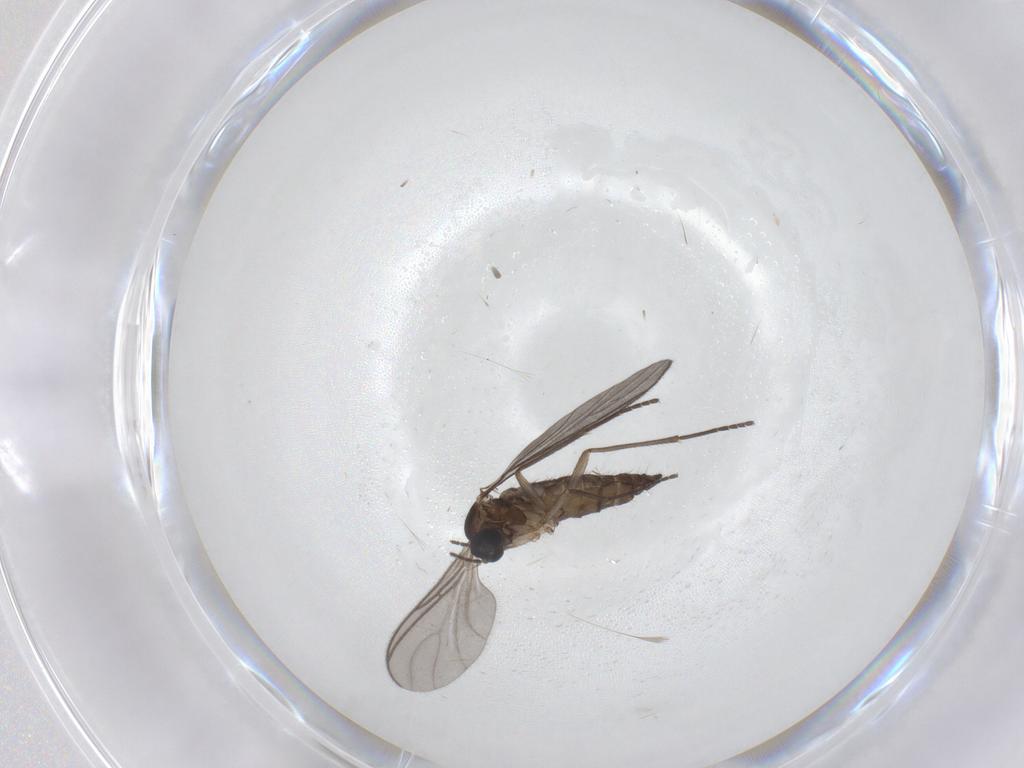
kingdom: Animalia
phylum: Arthropoda
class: Insecta
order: Diptera
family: Sciaridae
